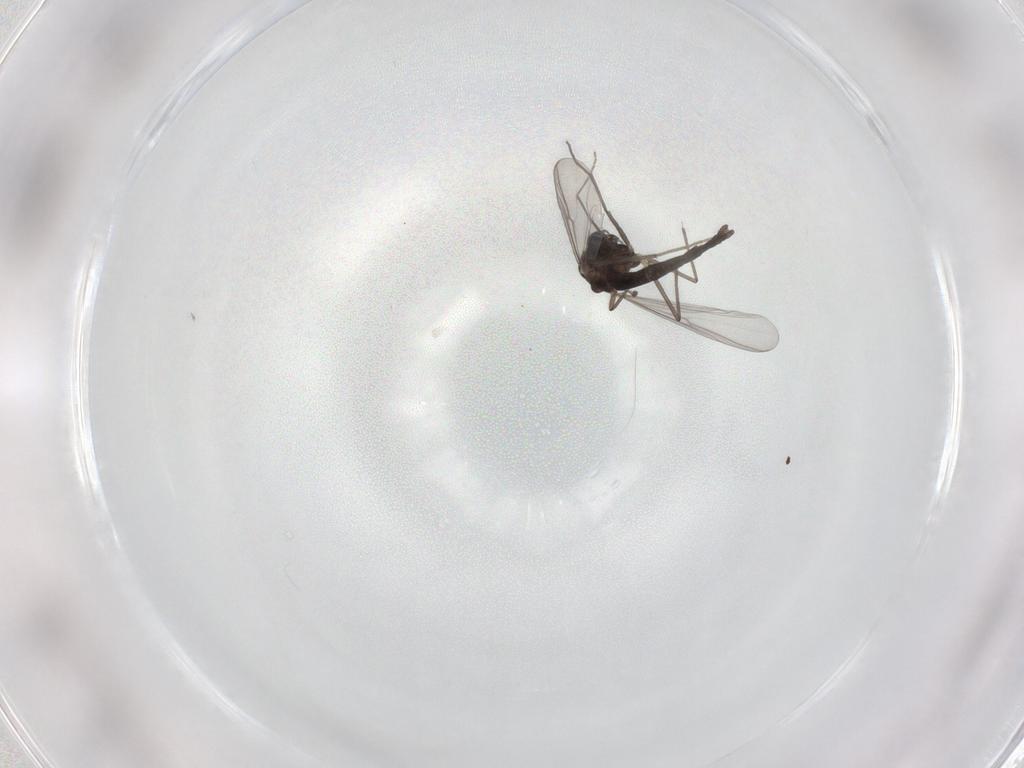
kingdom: Animalia
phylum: Arthropoda
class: Insecta
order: Diptera
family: Chironomidae
